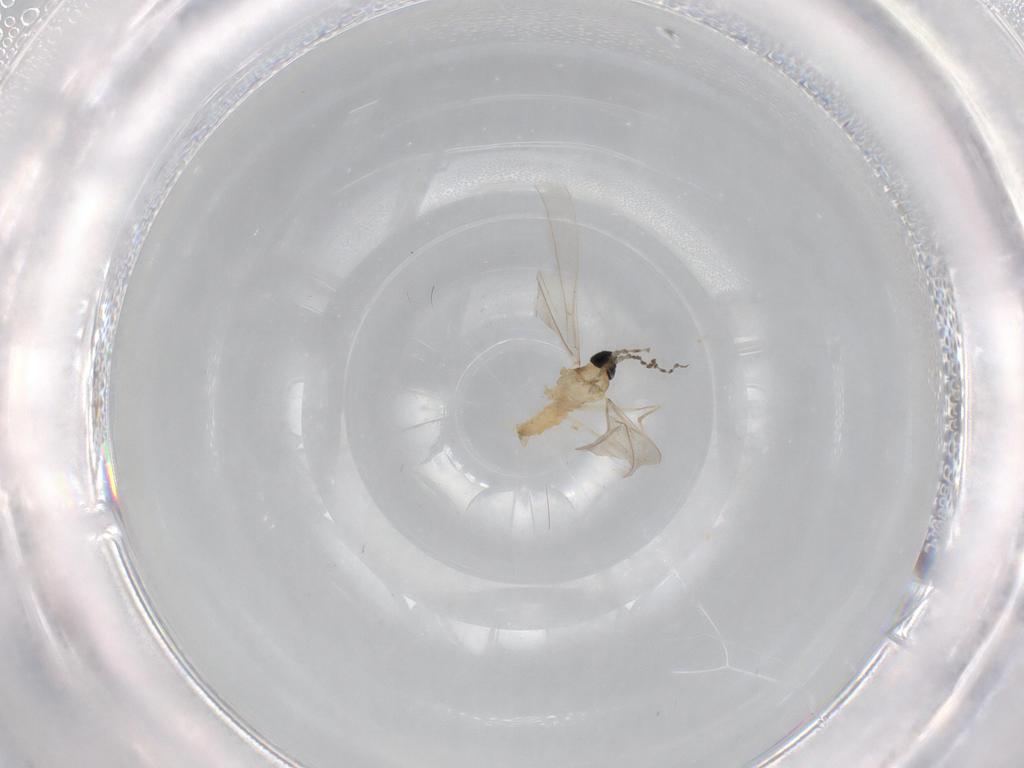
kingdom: Animalia
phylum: Arthropoda
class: Insecta
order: Diptera
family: Cecidomyiidae
